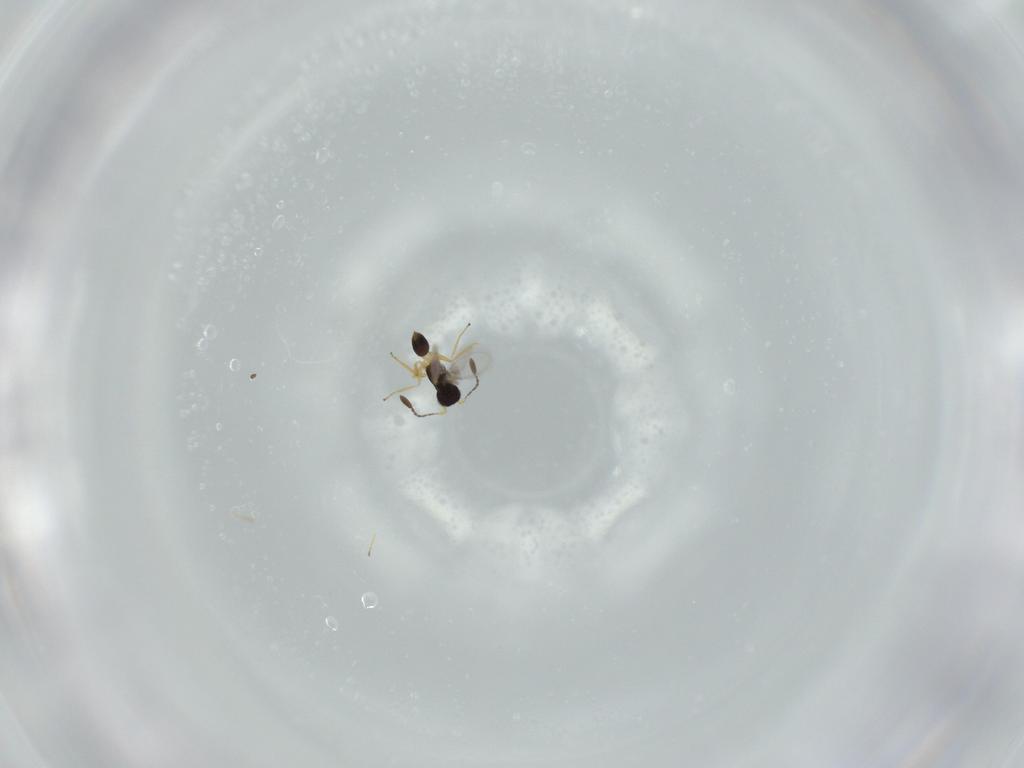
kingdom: Animalia
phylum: Arthropoda
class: Insecta
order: Hymenoptera
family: Mymaridae
